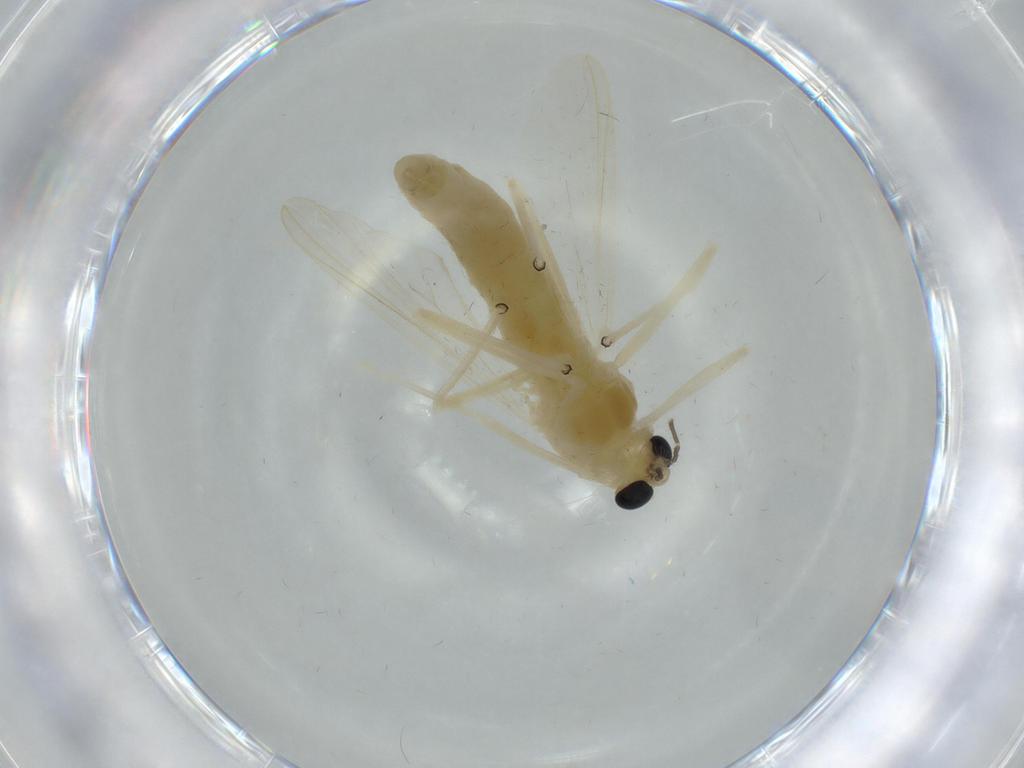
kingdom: Animalia
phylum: Arthropoda
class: Insecta
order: Diptera
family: Chironomidae
